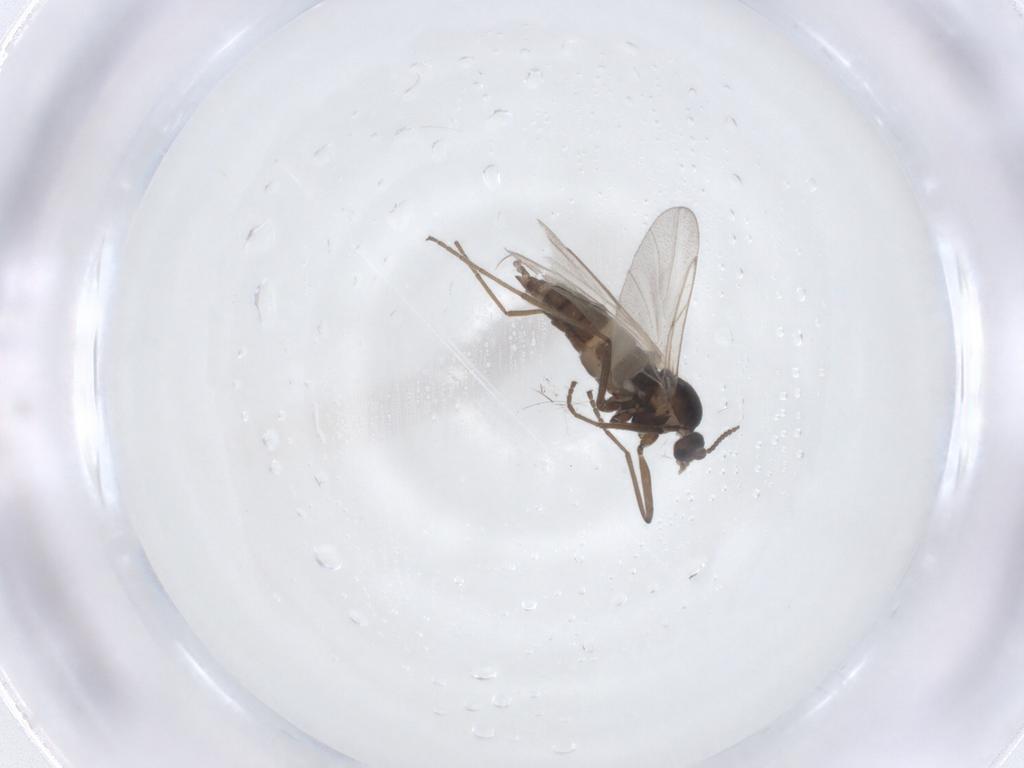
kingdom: Animalia
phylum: Arthropoda
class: Insecta
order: Diptera
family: Cecidomyiidae
